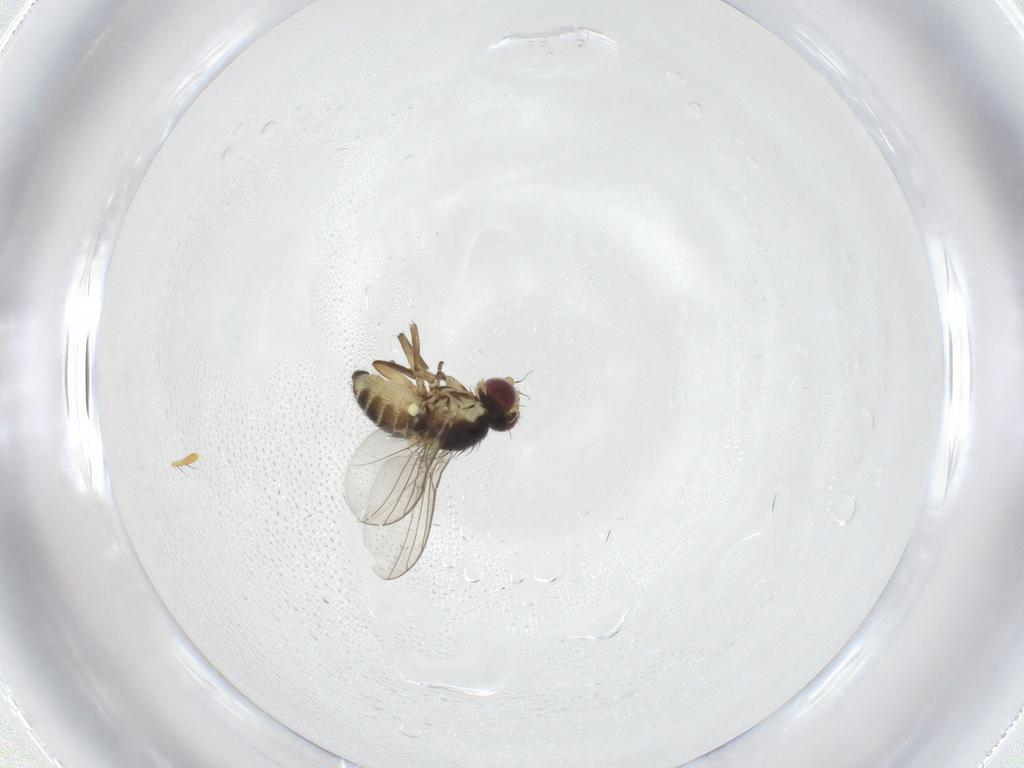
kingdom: Animalia
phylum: Arthropoda
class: Insecta
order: Diptera
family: Agromyzidae
